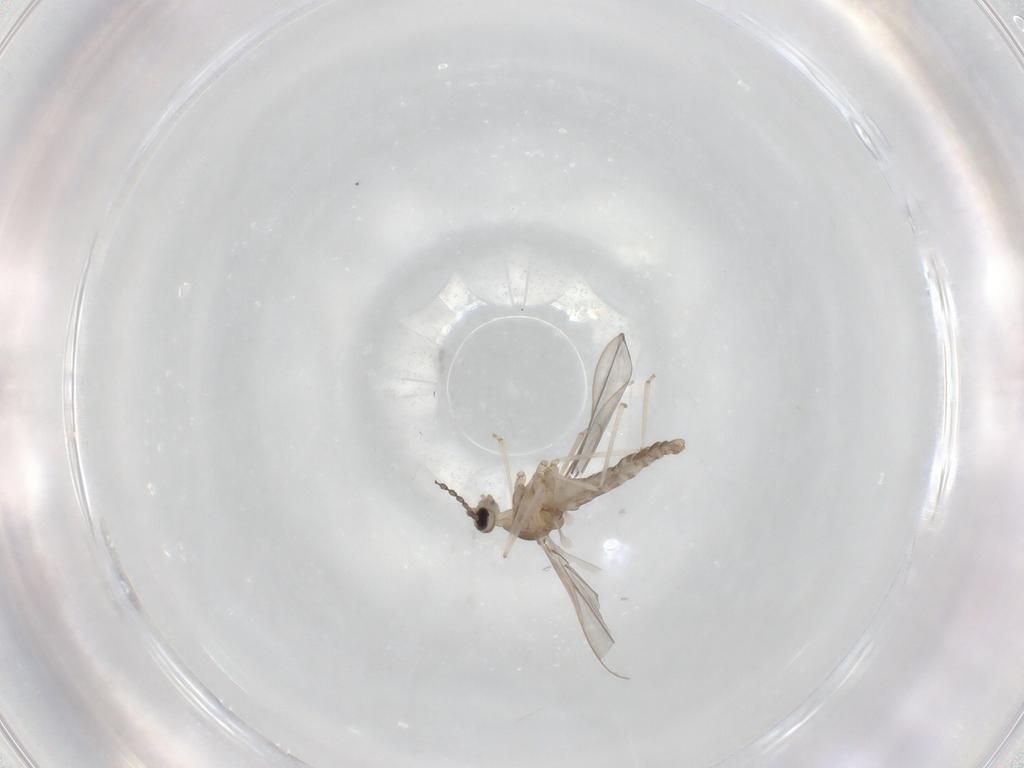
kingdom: Animalia
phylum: Arthropoda
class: Insecta
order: Diptera
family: Cecidomyiidae
